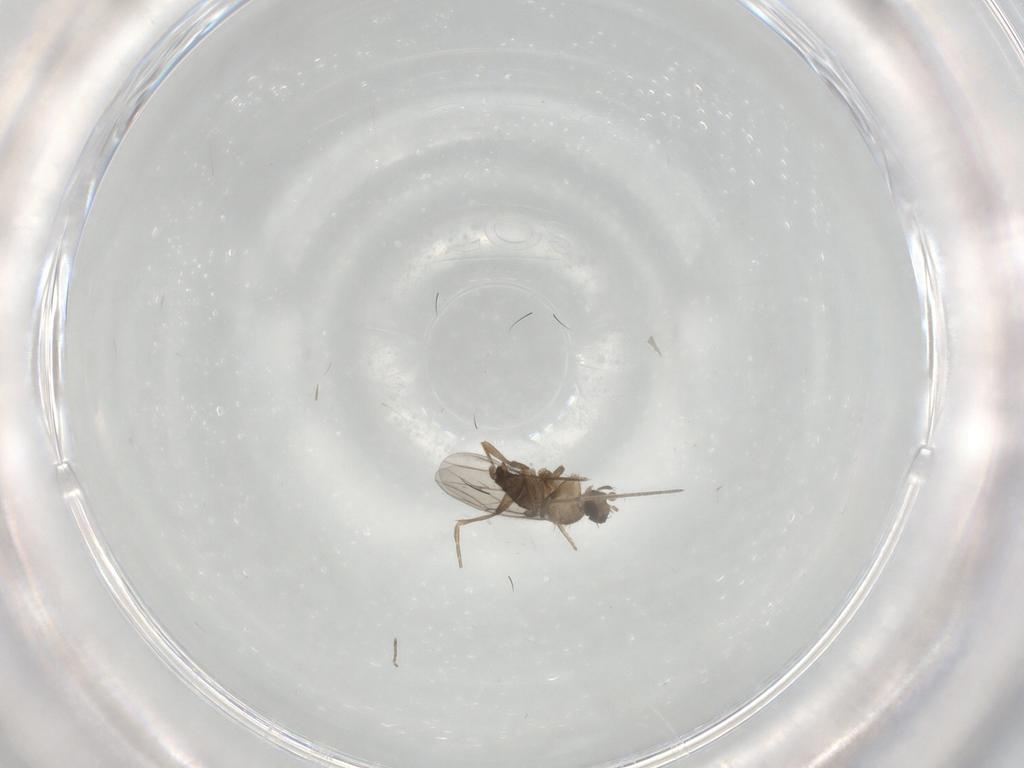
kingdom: Animalia
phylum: Arthropoda
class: Insecta
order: Diptera
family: Ceratopogonidae
